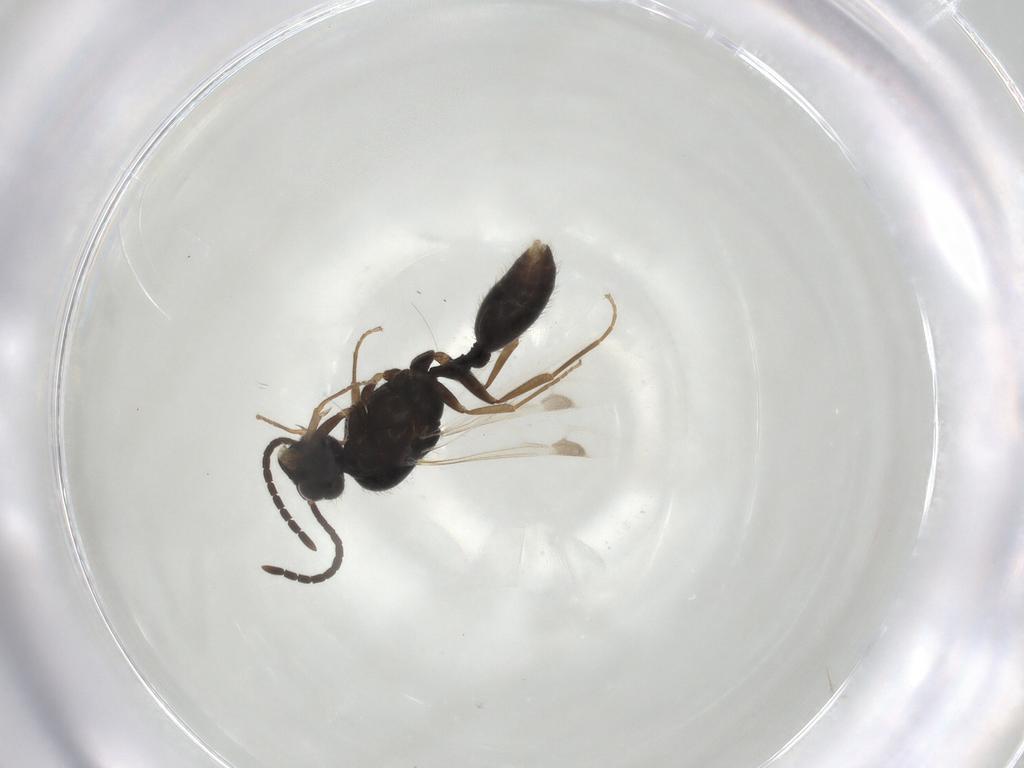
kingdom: Animalia
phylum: Arthropoda
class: Insecta
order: Hymenoptera
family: Formicidae
